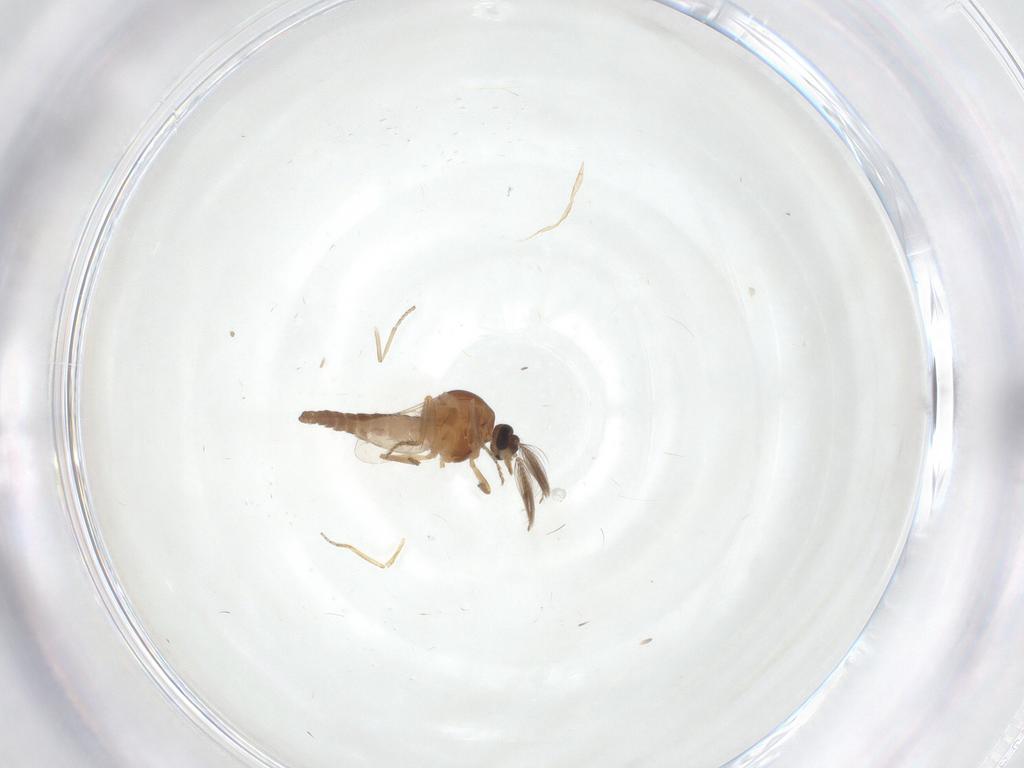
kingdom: Animalia
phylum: Arthropoda
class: Insecta
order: Diptera
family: Ceratopogonidae
